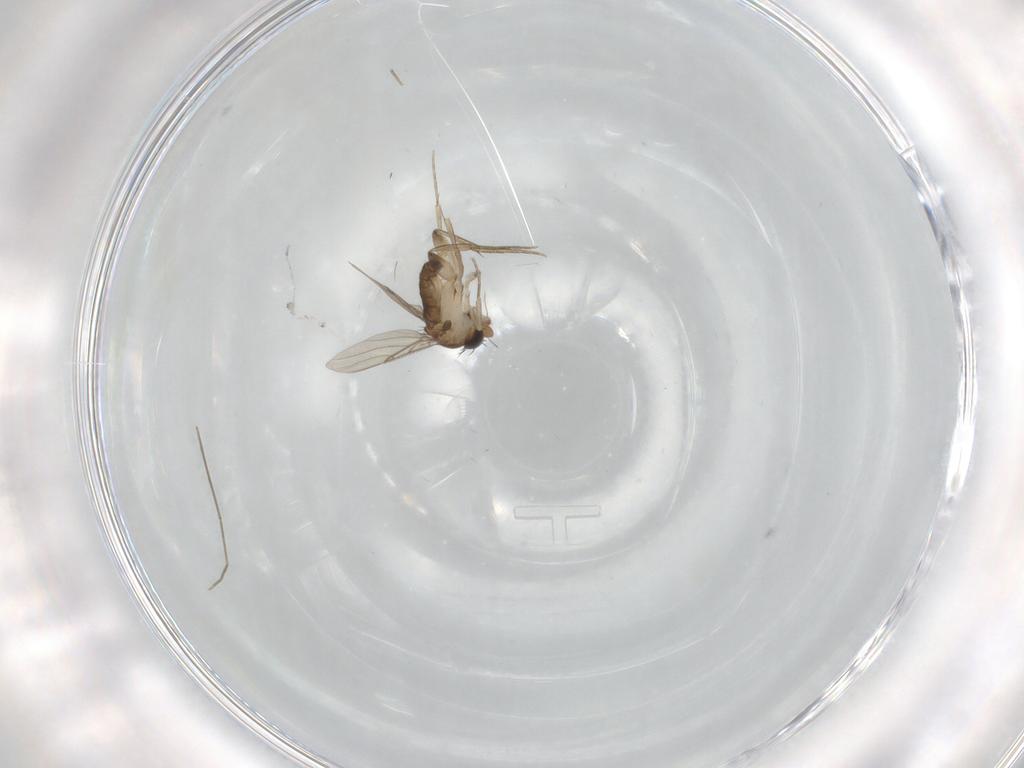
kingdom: Animalia
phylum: Arthropoda
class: Insecta
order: Diptera
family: Phoridae
